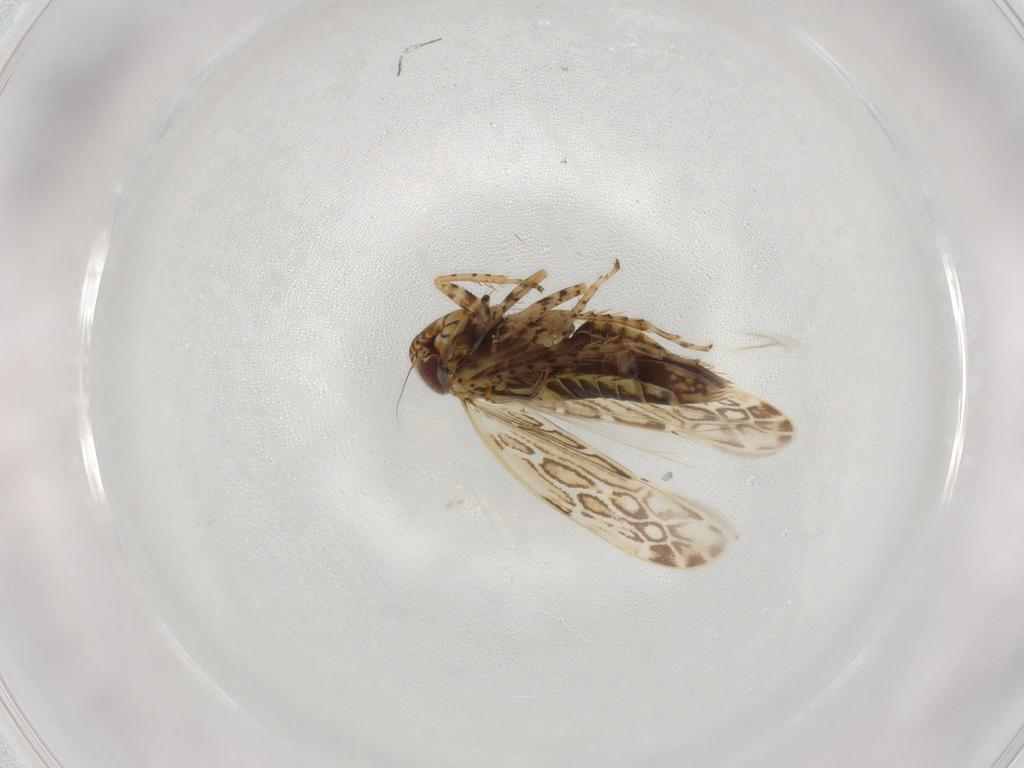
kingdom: Animalia
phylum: Arthropoda
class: Insecta
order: Hemiptera
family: Cicadellidae
